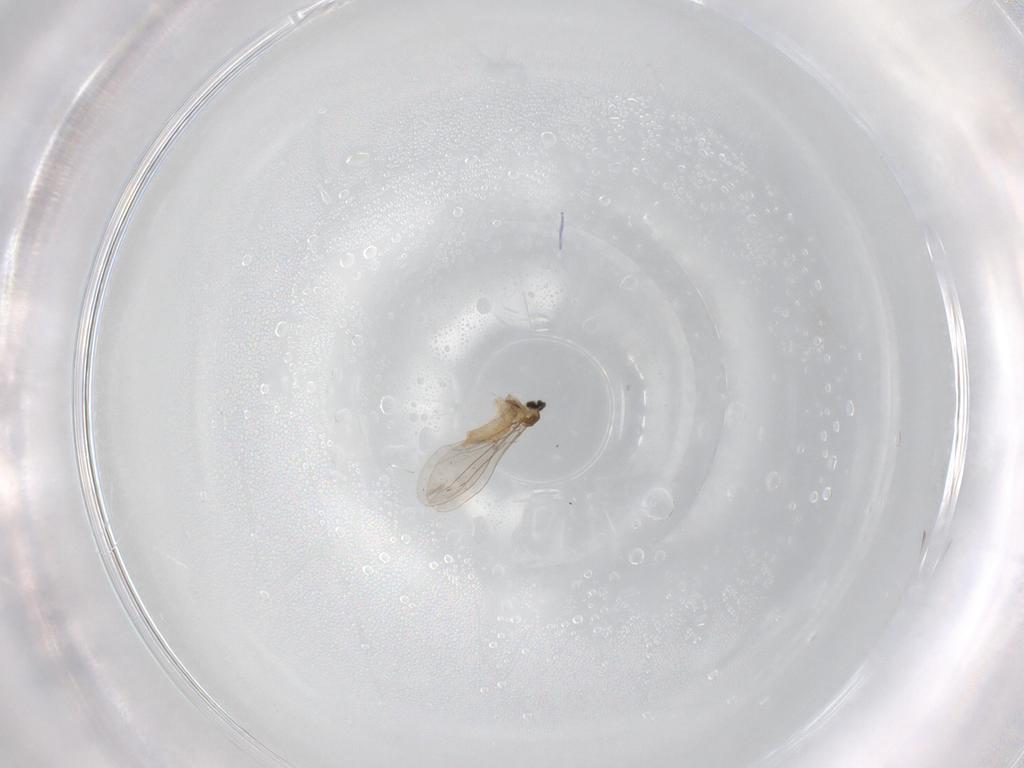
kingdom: Animalia
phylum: Arthropoda
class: Insecta
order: Diptera
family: Cecidomyiidae
